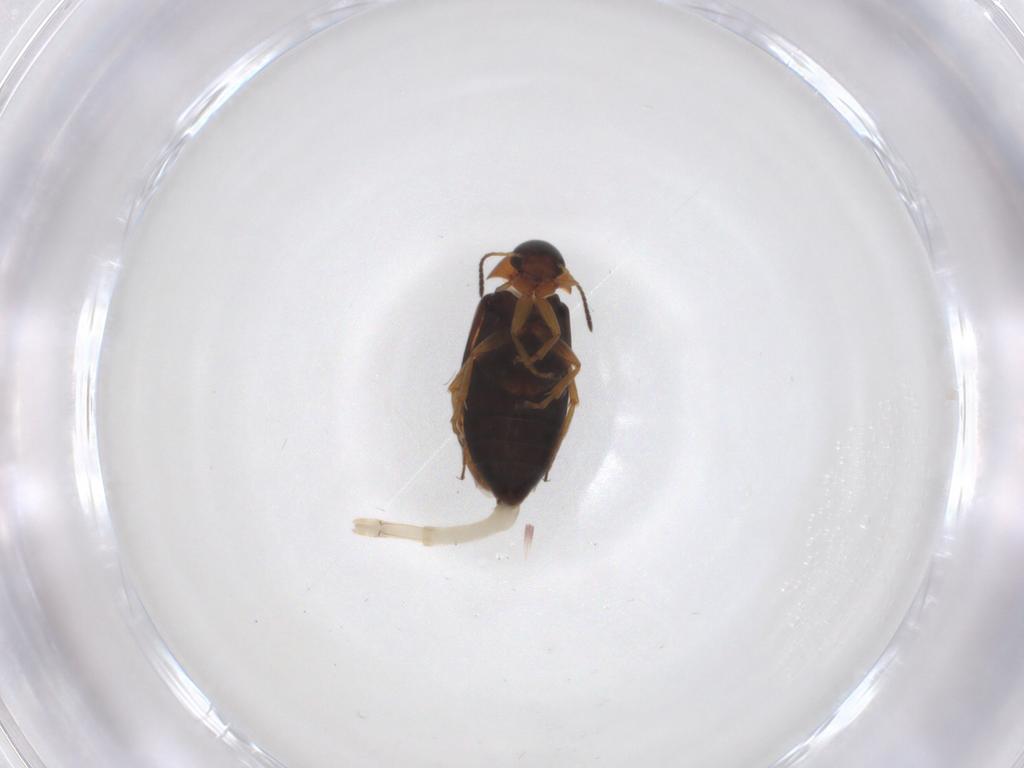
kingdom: Animalia
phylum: Arthropoda
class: Insecta
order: Coleoptera
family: Scraptiidae
